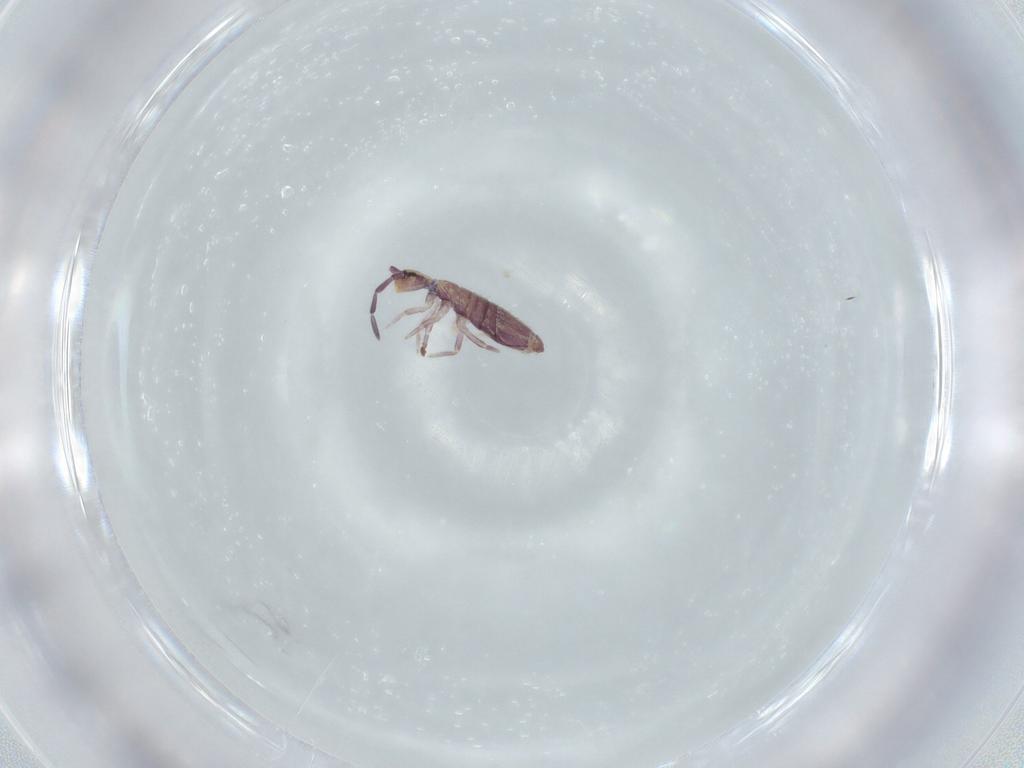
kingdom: Animalia
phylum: Arthropoda
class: Collembola
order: Entomobryomorpha
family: Entomobryidae
